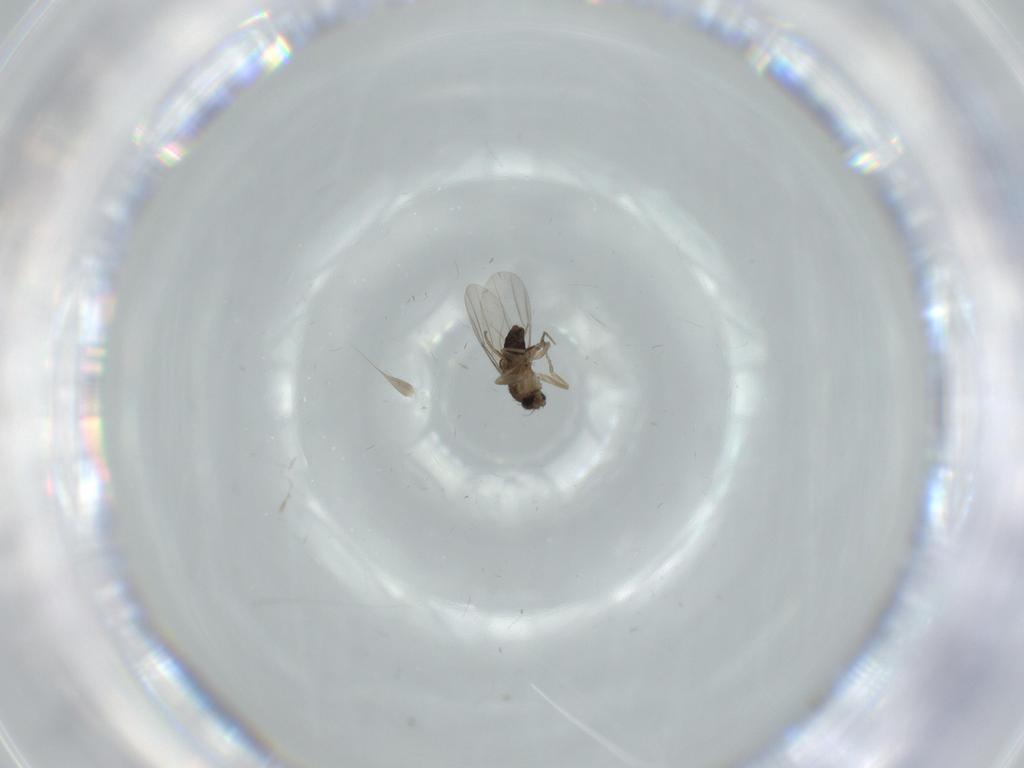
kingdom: Animalia
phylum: Arthropoda
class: Insecta
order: Diptera
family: Phoridae
